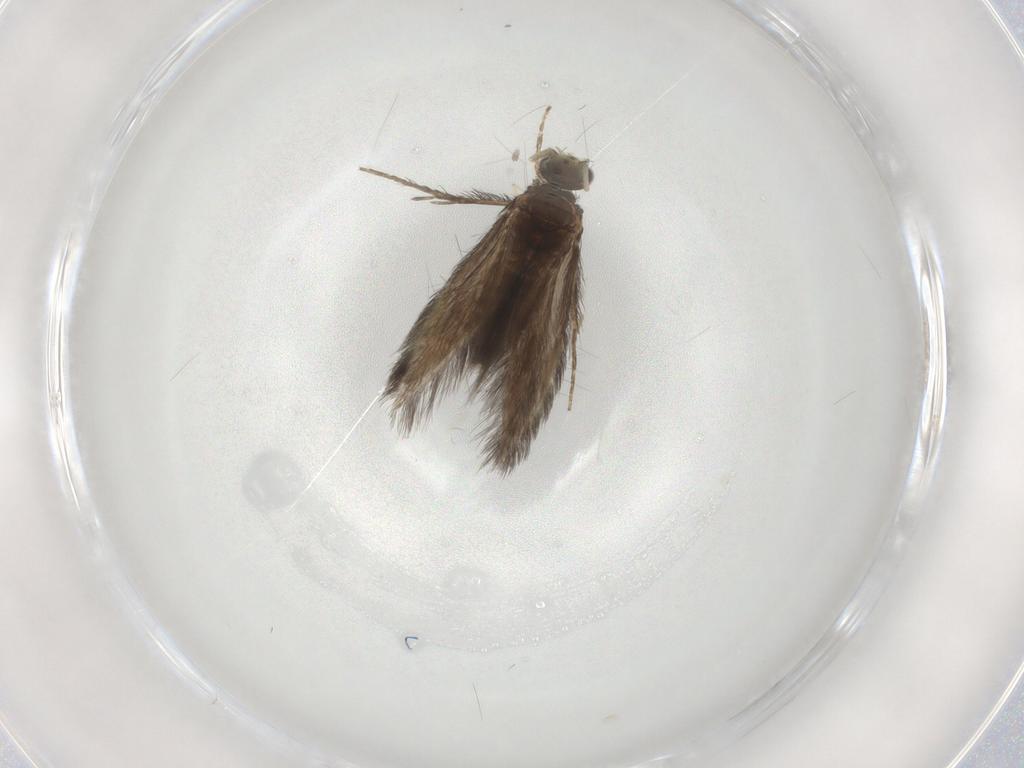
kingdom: Animalia
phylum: Arthropoda
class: Insecta
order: Trichoptera
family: Hydroptilidae
